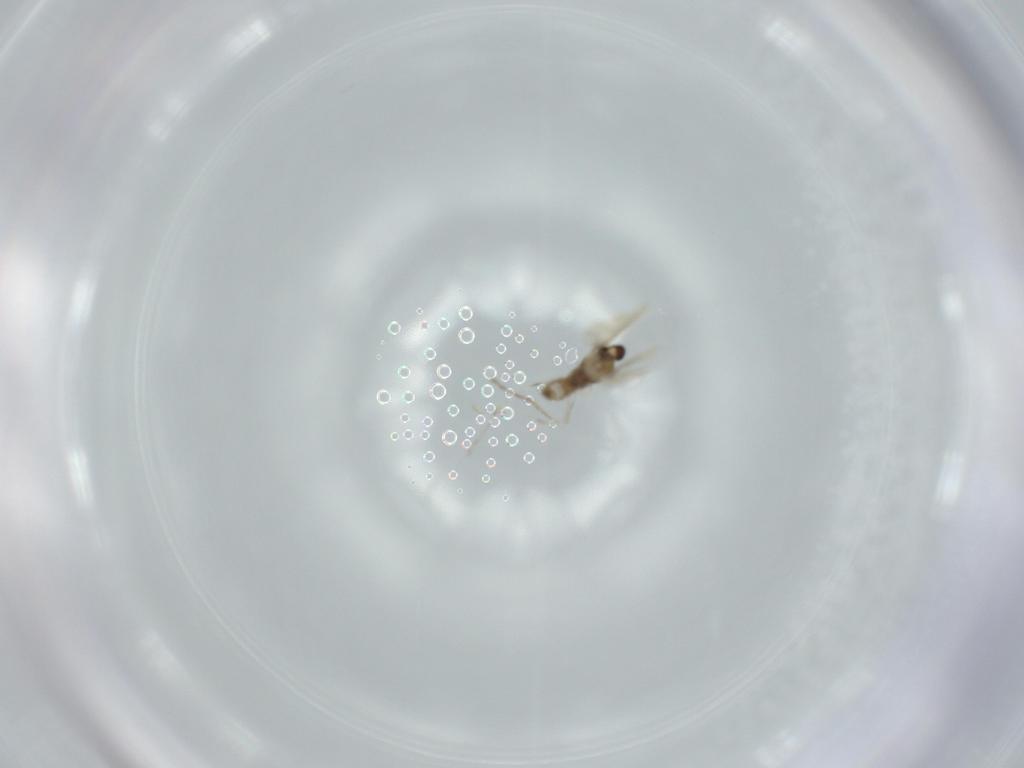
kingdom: Animalia
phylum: Arthropoda
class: Insecta
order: Diptera
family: Cecidomyiidae
